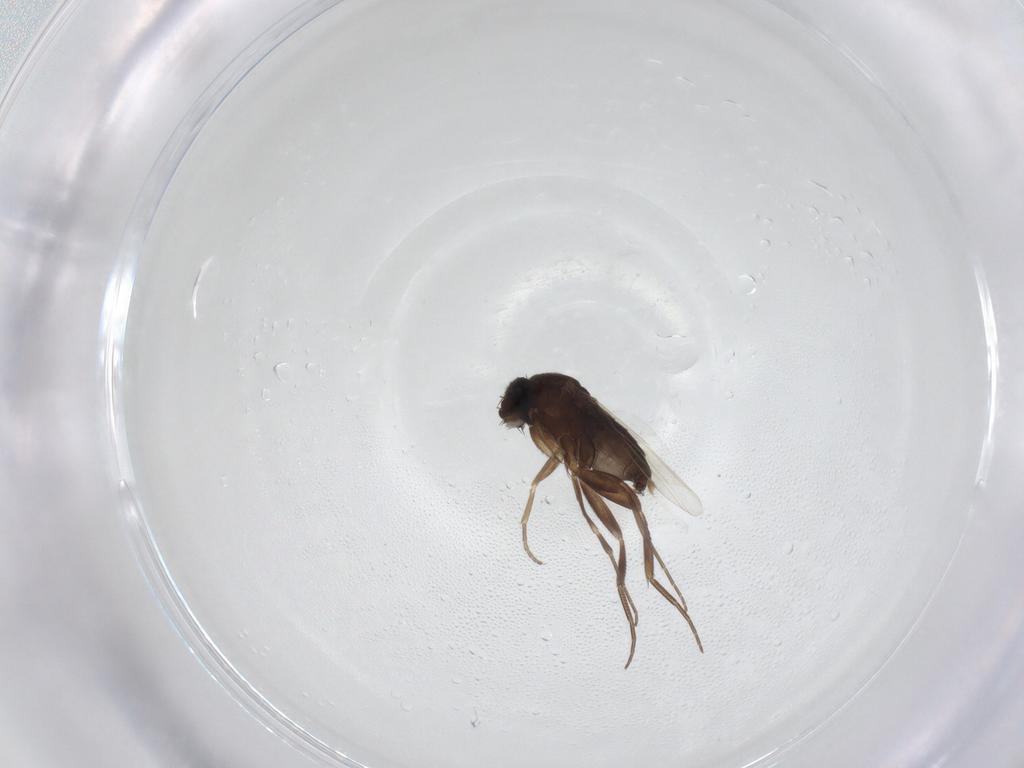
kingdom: Animalia
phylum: Arthropoda
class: Insecta
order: Diptera
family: Phoridae
